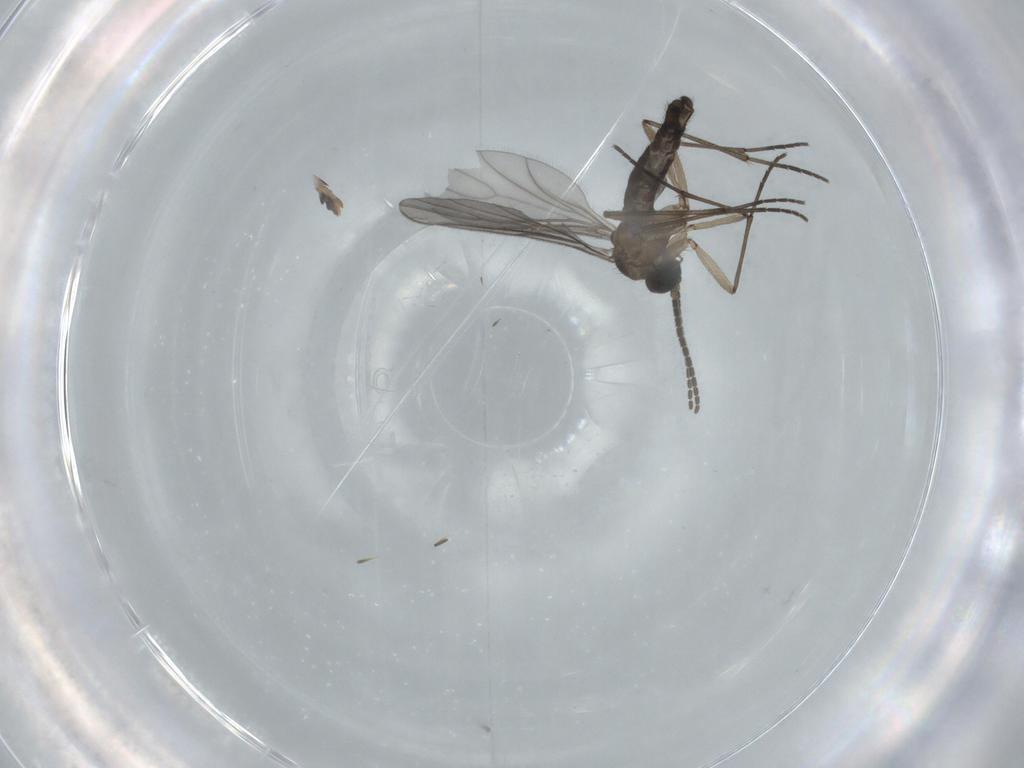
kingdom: Animalia
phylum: Arthropoda
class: Insecta
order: Diptera
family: Sciaridae
